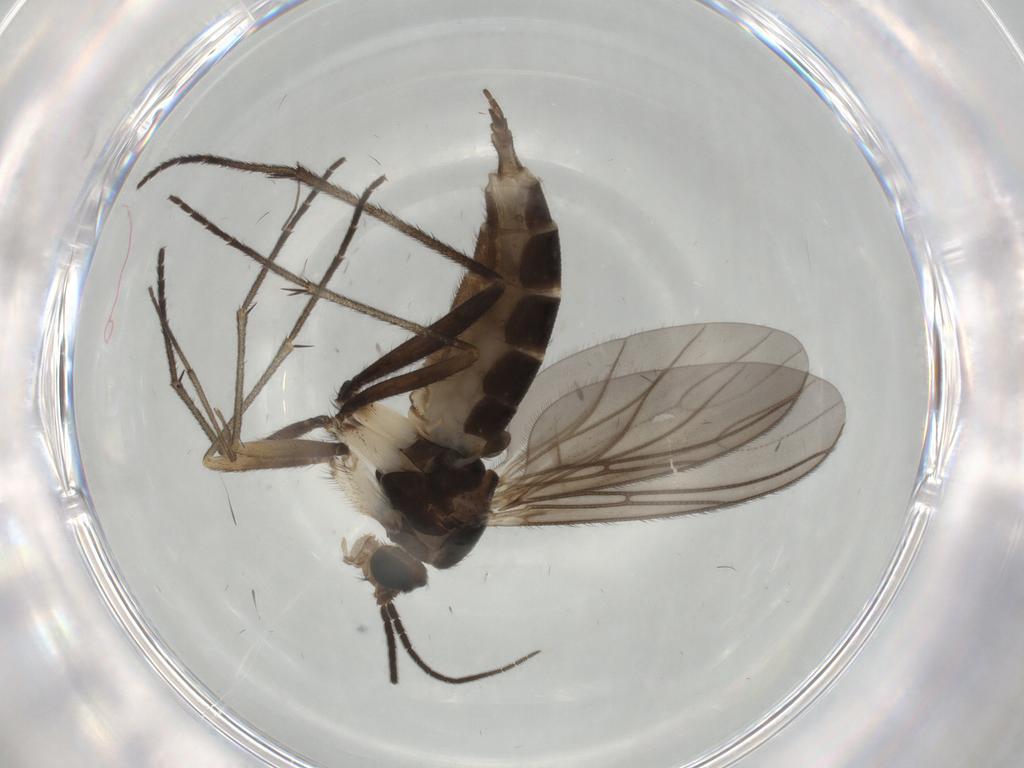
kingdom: Animalia
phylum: Arthropoda
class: Insecta
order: Diptera
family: Sciaridae
